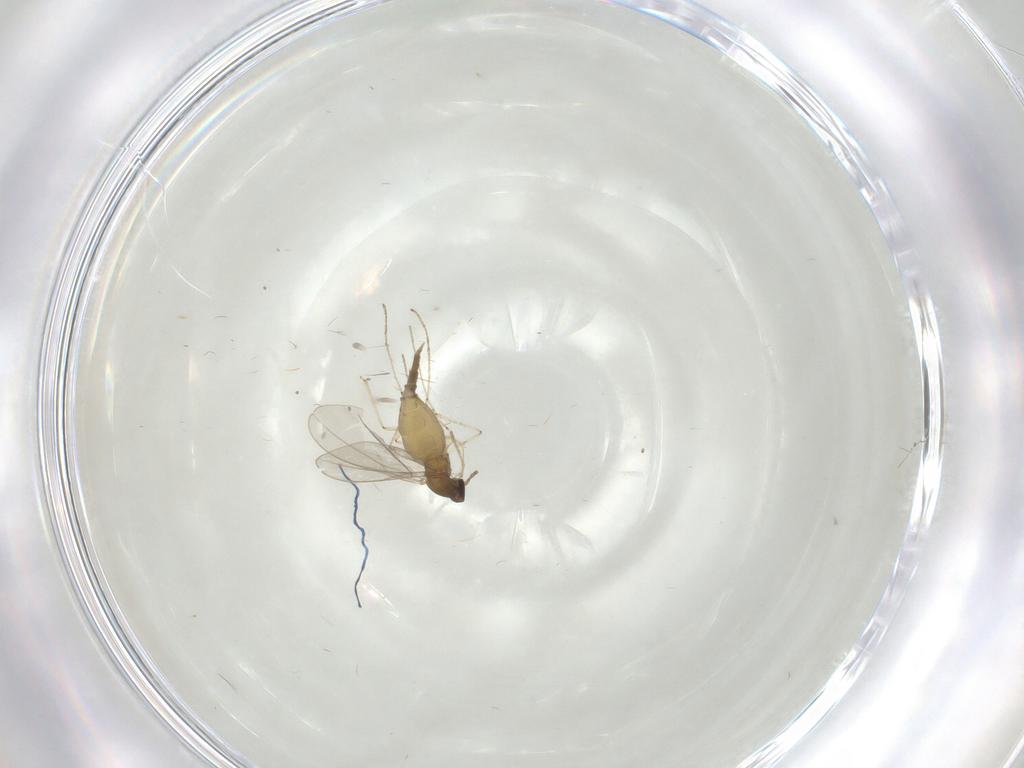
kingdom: Animalia
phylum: Arthropoda
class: Insecta
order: Diptera
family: Cecidomyiidae
